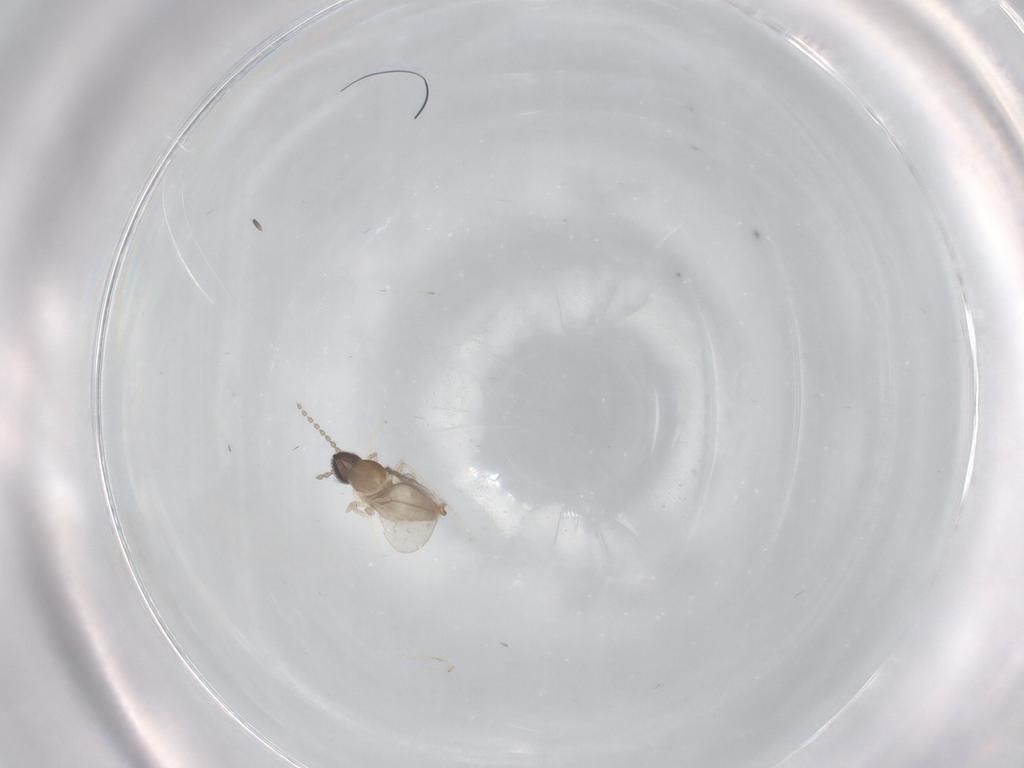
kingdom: Animalia
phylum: Arthropoda
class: Insecta
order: Diptera
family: Cecidomyiidae
